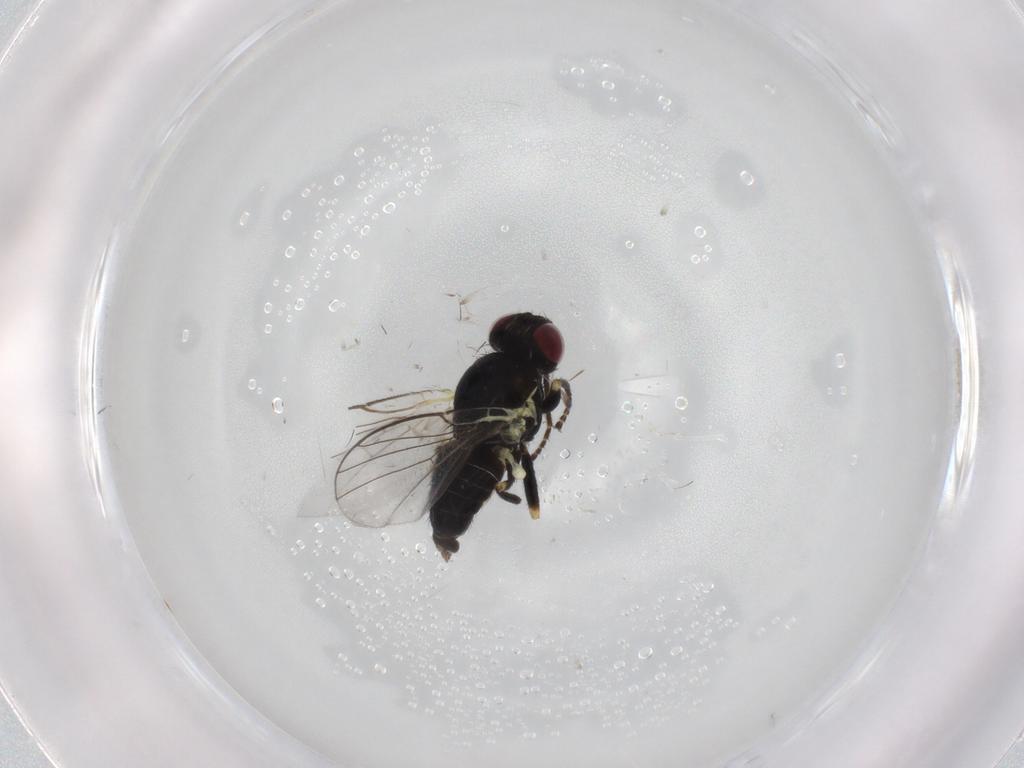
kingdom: Animalia
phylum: Arthropoda
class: Insecta
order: Diptera
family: Agromyzidae
